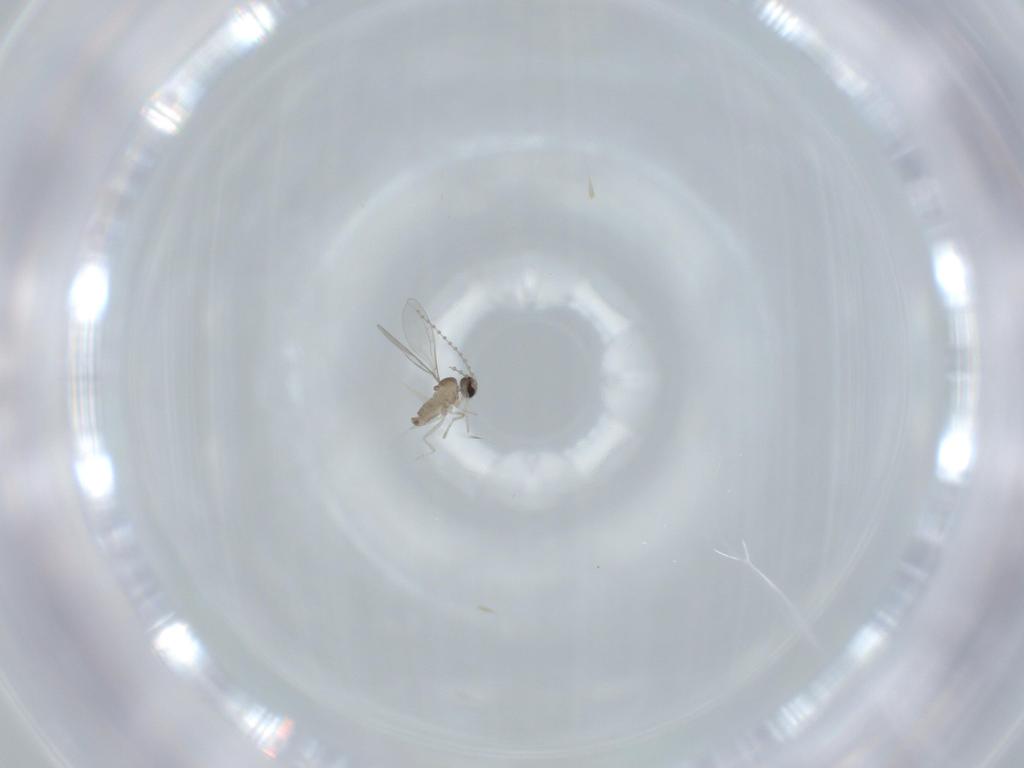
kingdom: Animalia
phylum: Arthropoda
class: Insecta
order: Diptera
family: Cecidomyiidae
